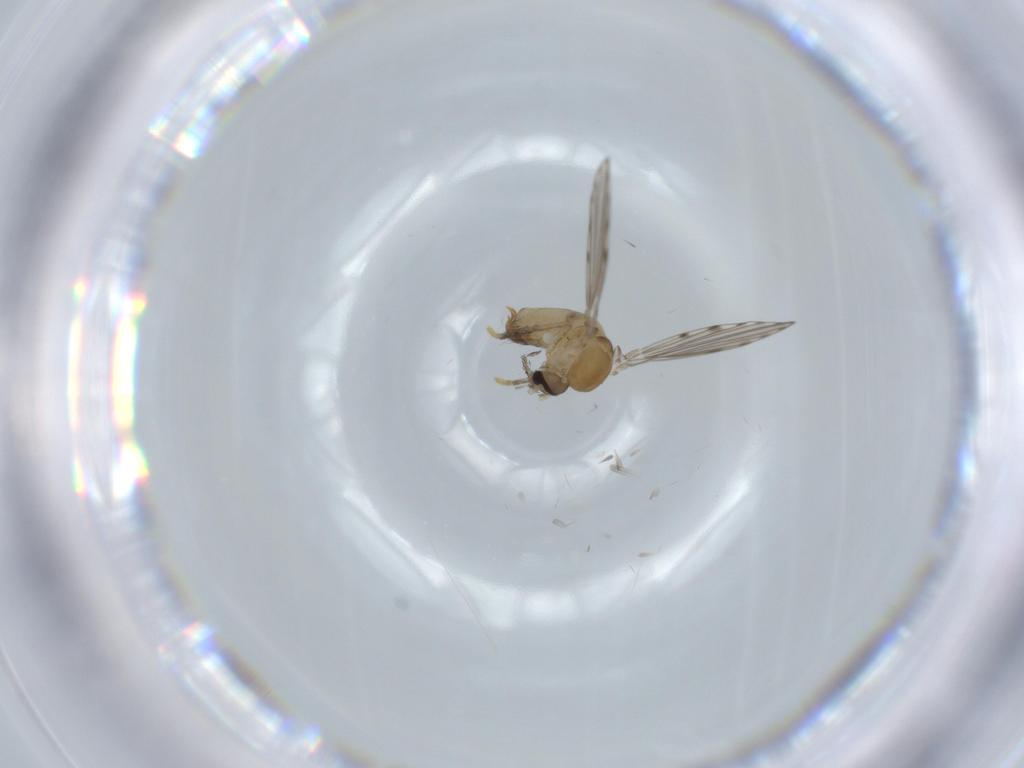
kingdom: Animalia
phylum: Arthropoda
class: Insecta
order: Diptera
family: Psychodidae
